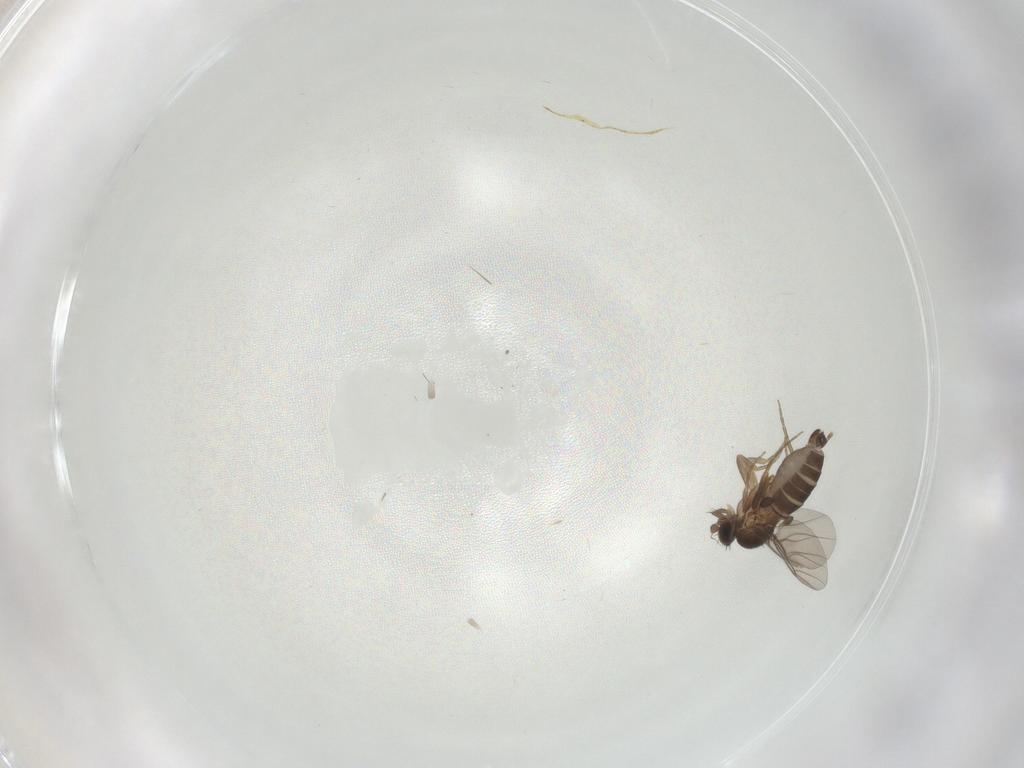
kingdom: Animalia
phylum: Arthropoda
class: Insecta
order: Diptera
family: Phoridae
